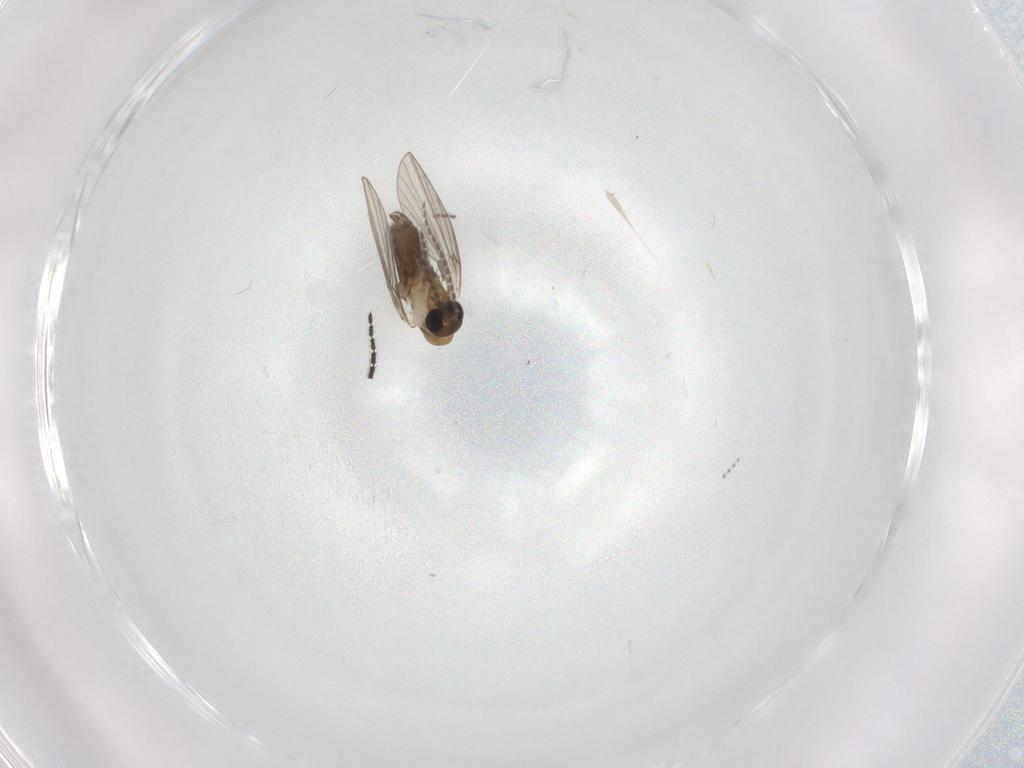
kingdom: Animalia
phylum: Arthropoda
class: Insecta
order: Diptera
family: Psychodidae
